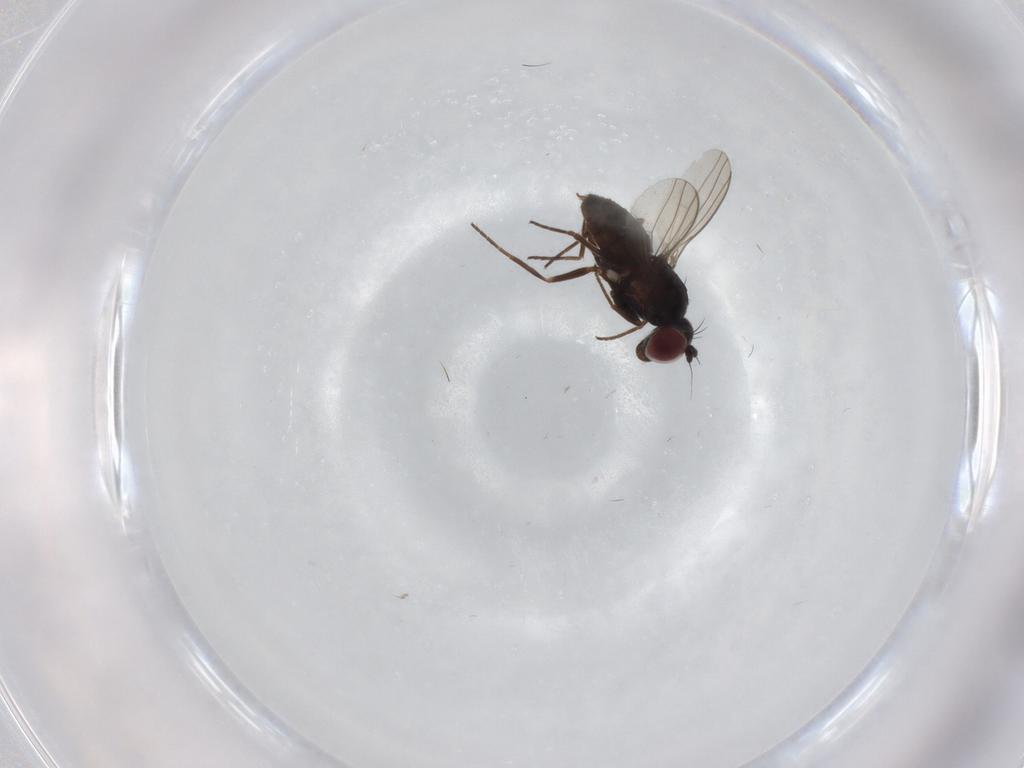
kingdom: Animalia
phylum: Arthropoda
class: Insecta
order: Diptera
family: Dolichopodidae
